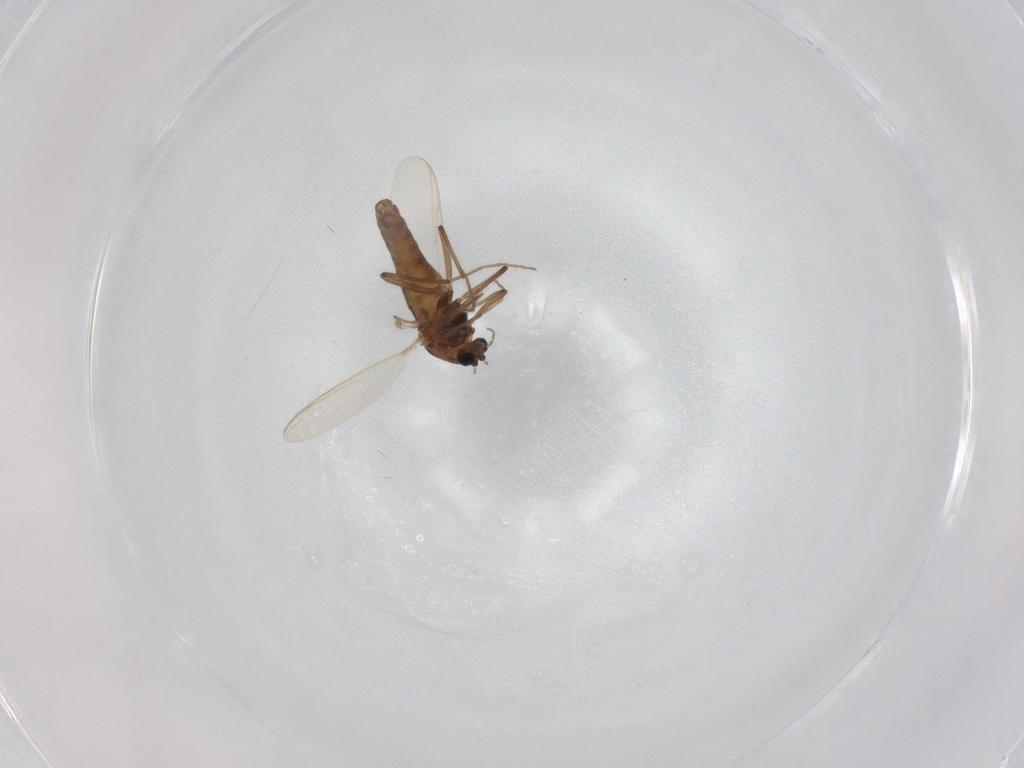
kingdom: Animalia
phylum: Arthropoda
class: Insecta
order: Diptera
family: Chironomidae
